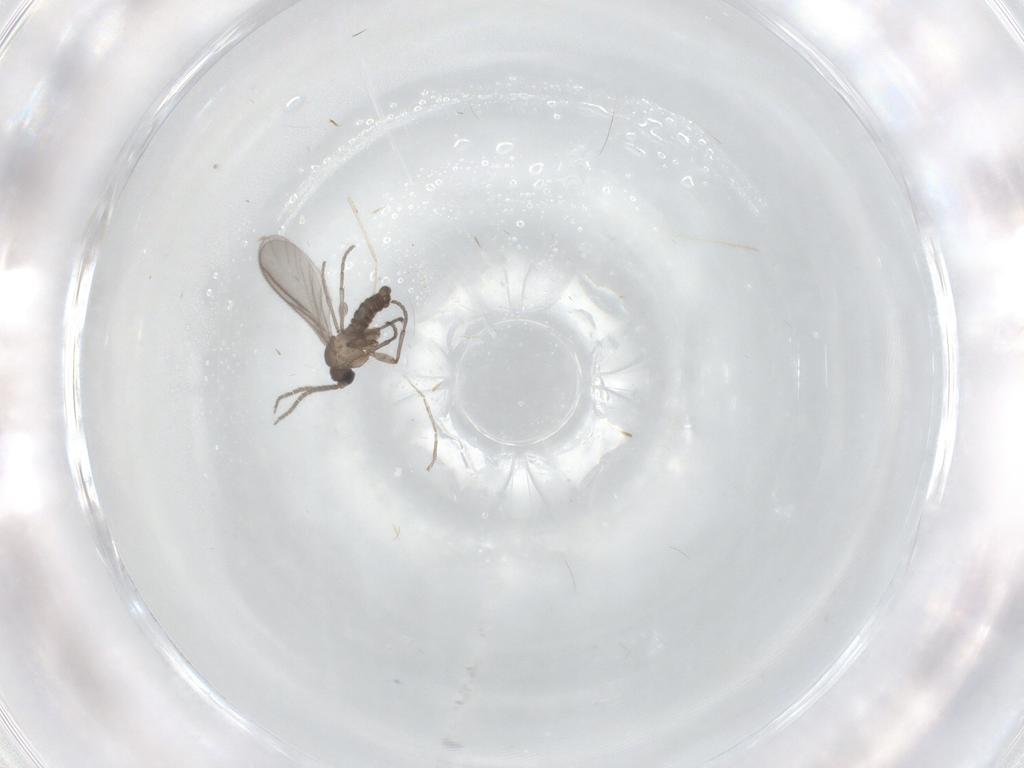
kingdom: Animalia
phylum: Arthropoda
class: Insecta
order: Diptera
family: Sciaridae
